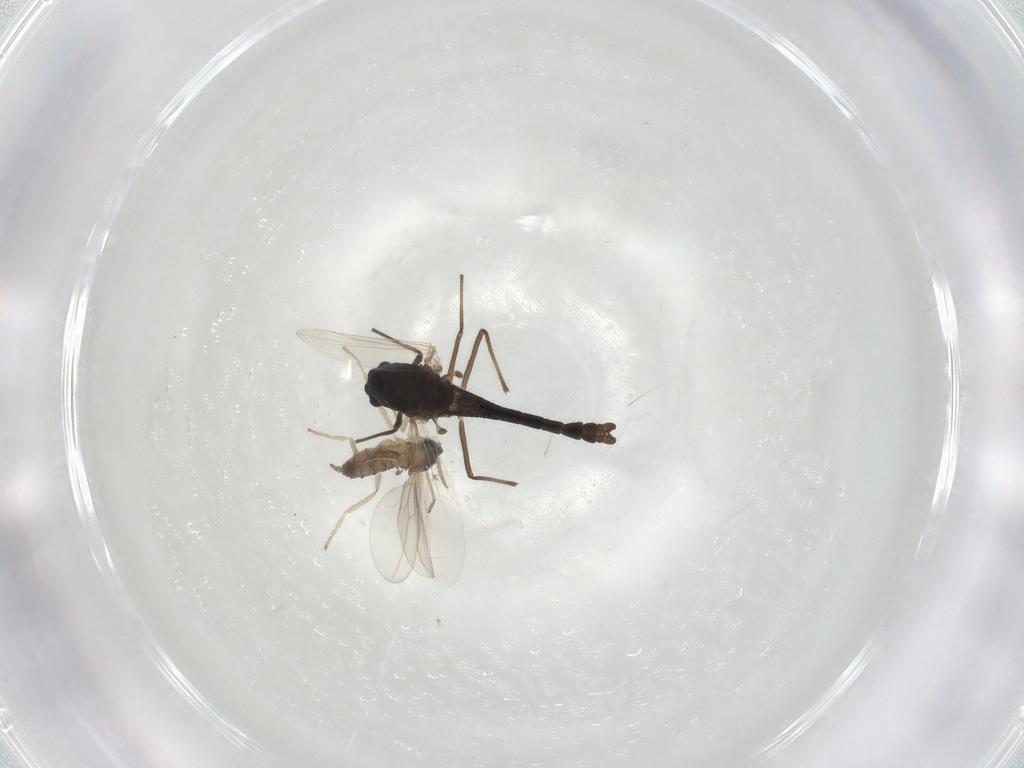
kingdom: Animalia
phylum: Arthropoda
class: Insecta
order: Diptera
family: Cecidomyiidae
